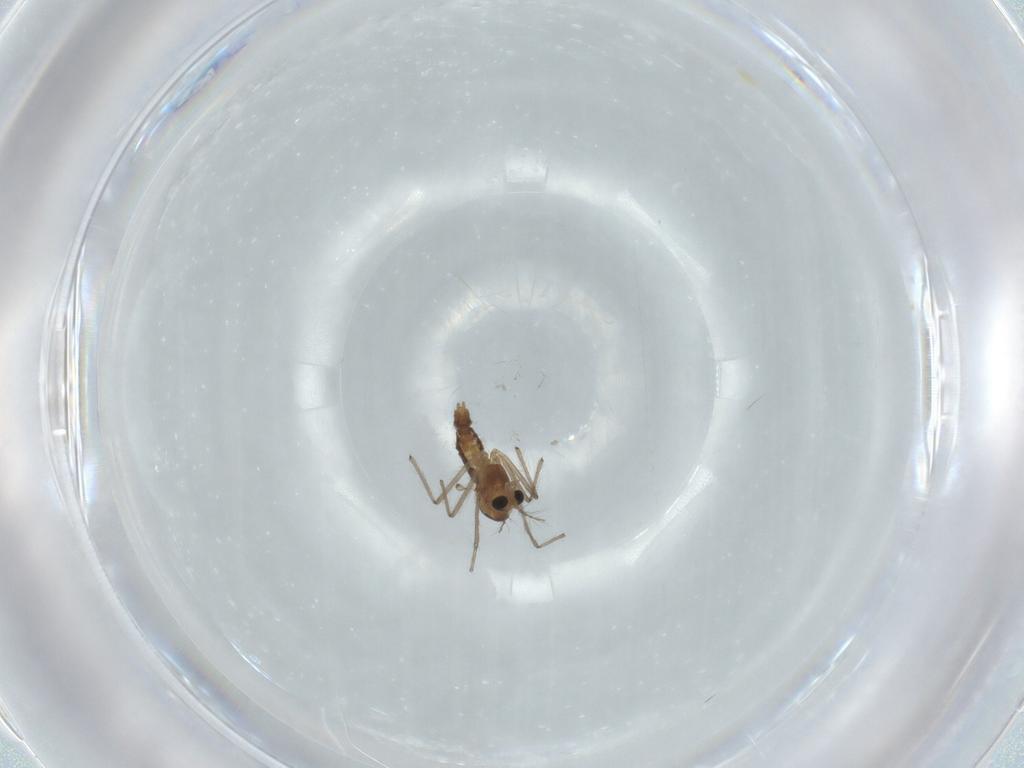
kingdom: Animalia
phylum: Arthropoda
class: Insecta
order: Diptera
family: Chironomidae
